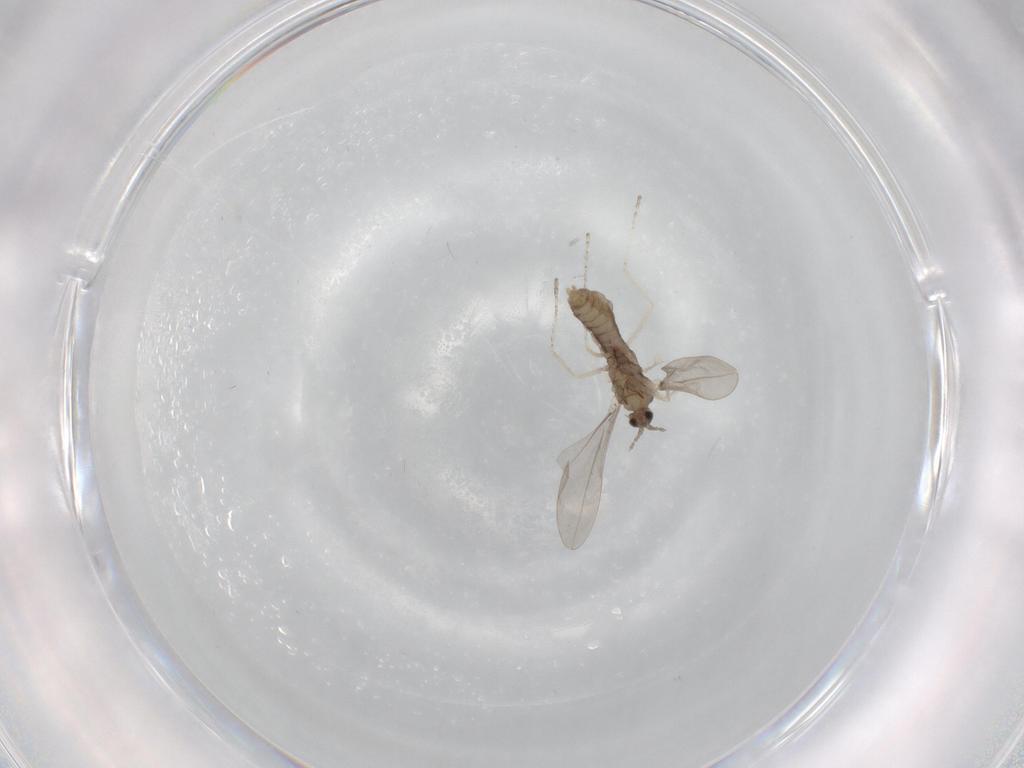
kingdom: Animalia
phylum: Arthropoda
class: Insecta
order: Diptera
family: Cecidomyiidae
